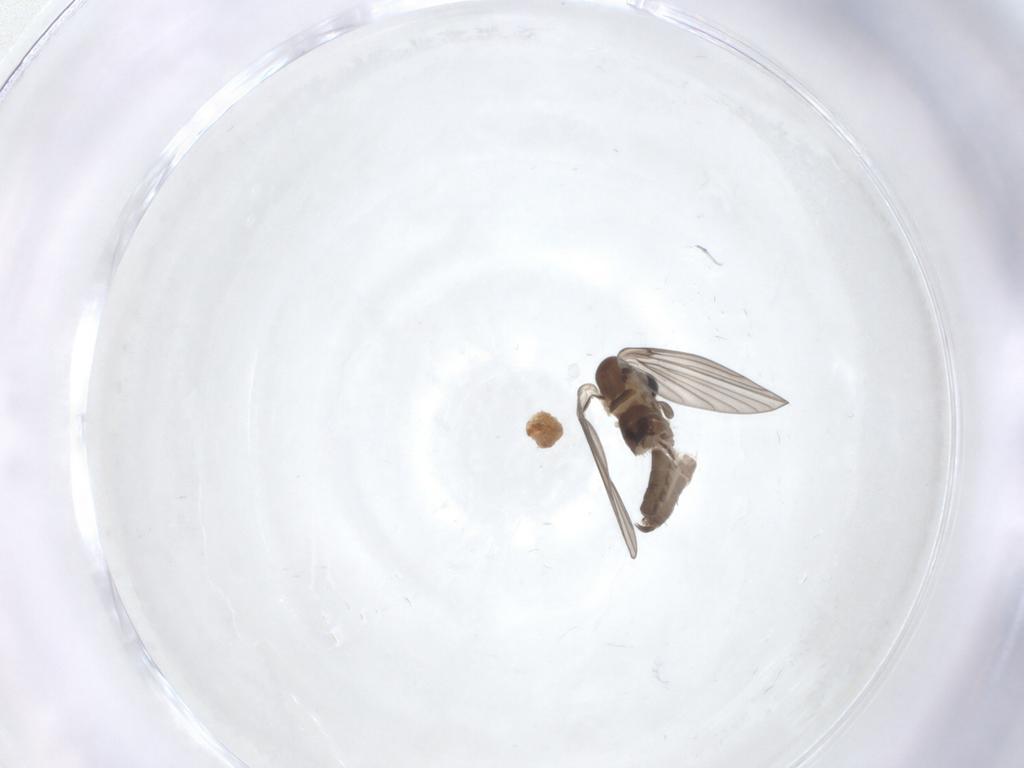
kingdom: Animalia
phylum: Arthropoda
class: Insecta
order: Diptera
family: Psychodidae
